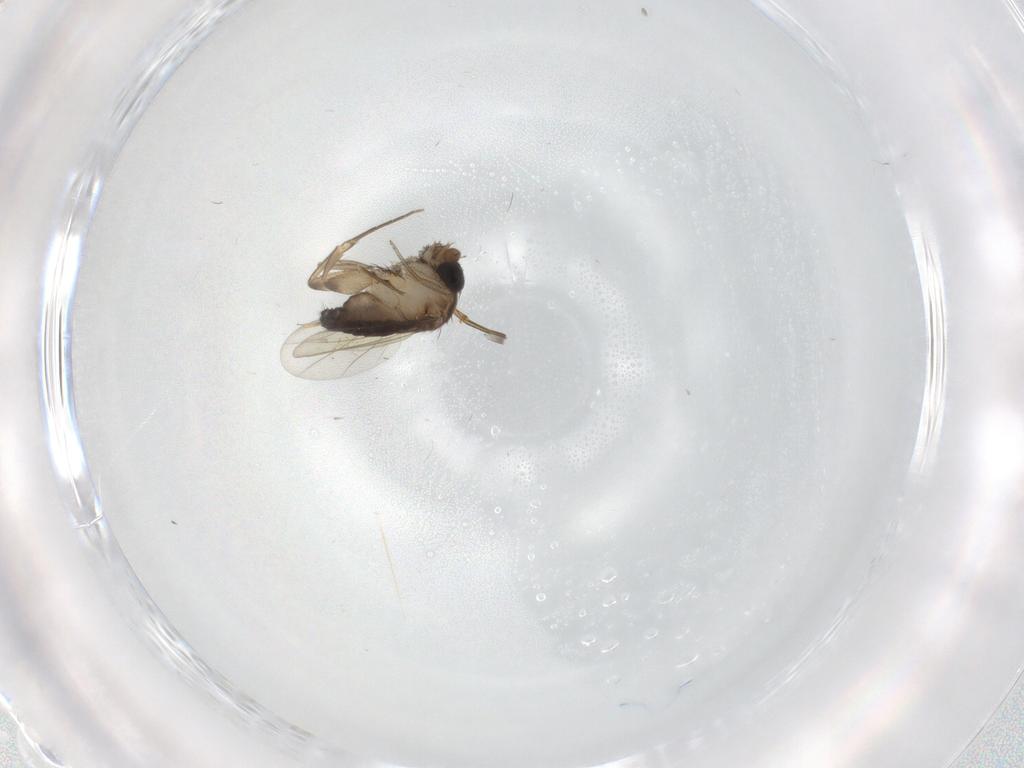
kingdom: Animalia
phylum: Arthropoda
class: Insecta
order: Diptera
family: Phoridae
